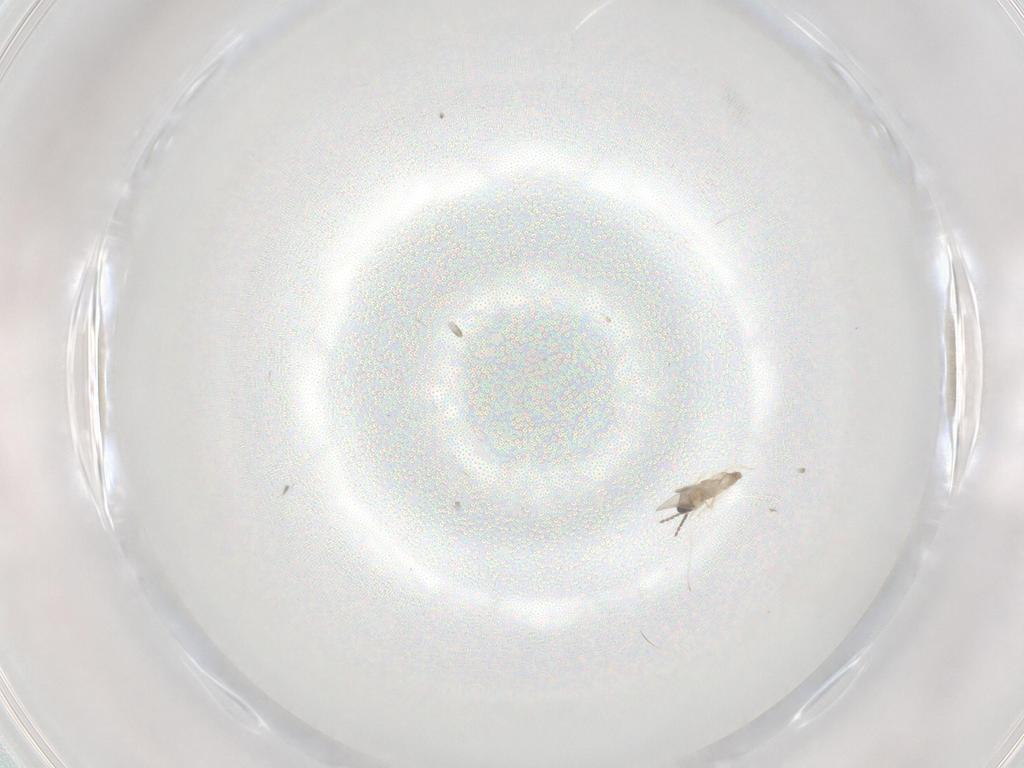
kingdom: Animalia
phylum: Arthropoda
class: Insecta
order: Diptera
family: Cecidomyiidae
